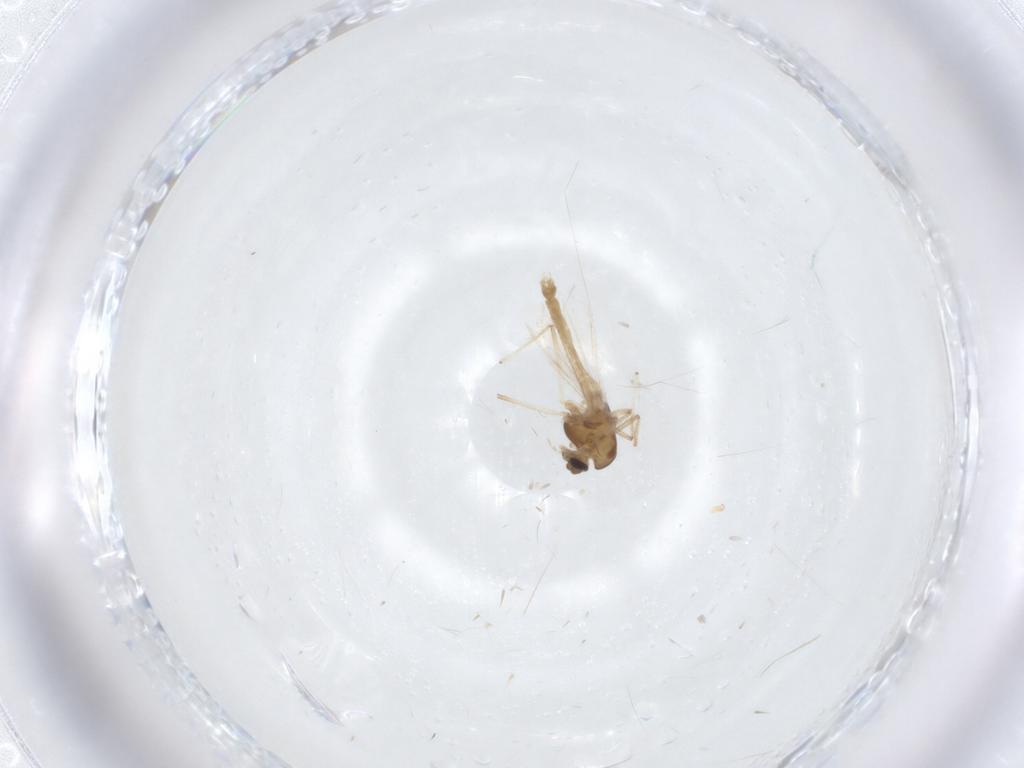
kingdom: Animalia
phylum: Arthropoda
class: Insecta
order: Diptera
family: Chironomidae
